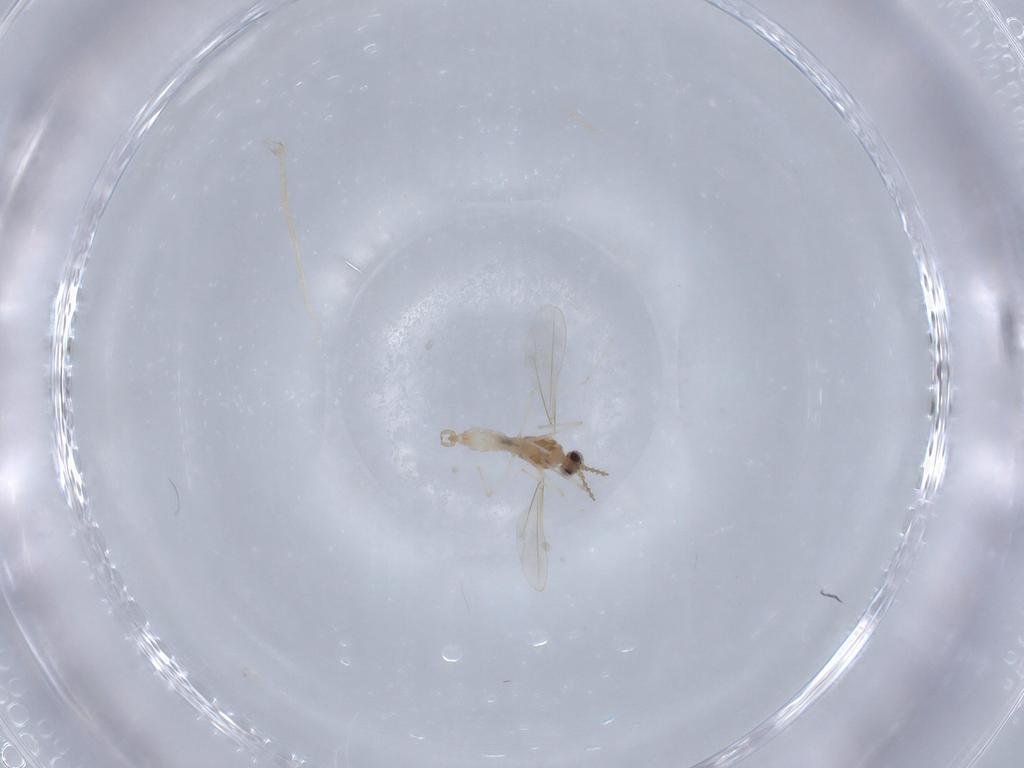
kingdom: Animalia
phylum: Arthropoda
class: Insecta
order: Diptera
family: Cecidomyiidae
